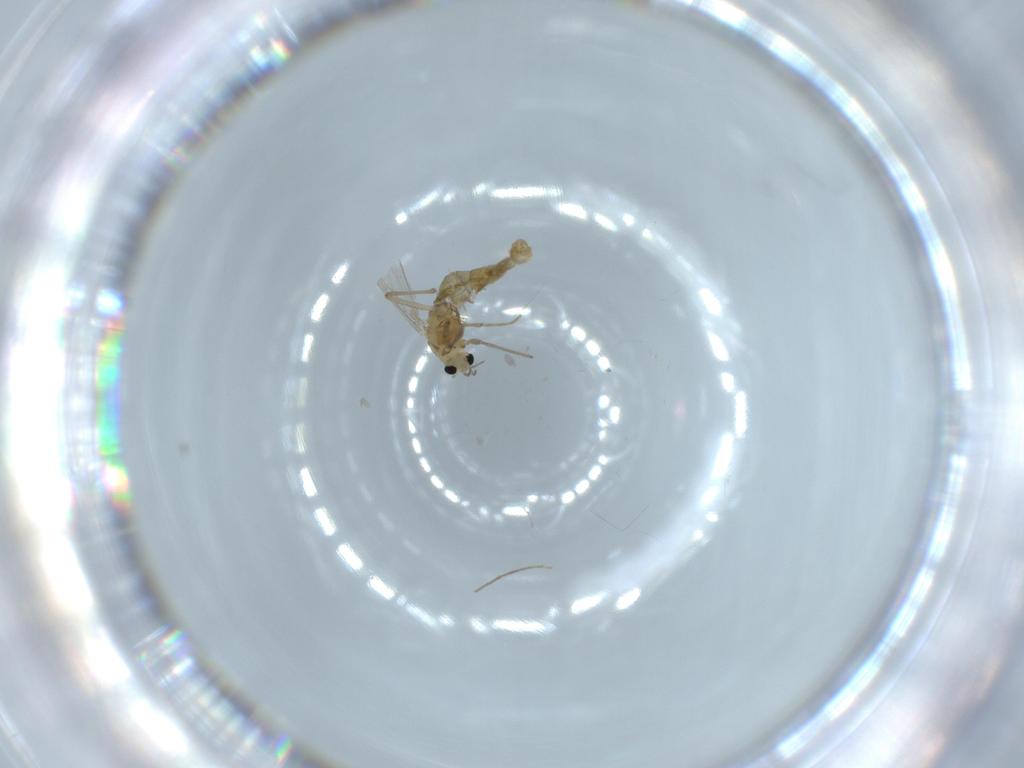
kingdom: Animalia
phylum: Arthropoda
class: Insecta
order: Diptera
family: Chironomidae
